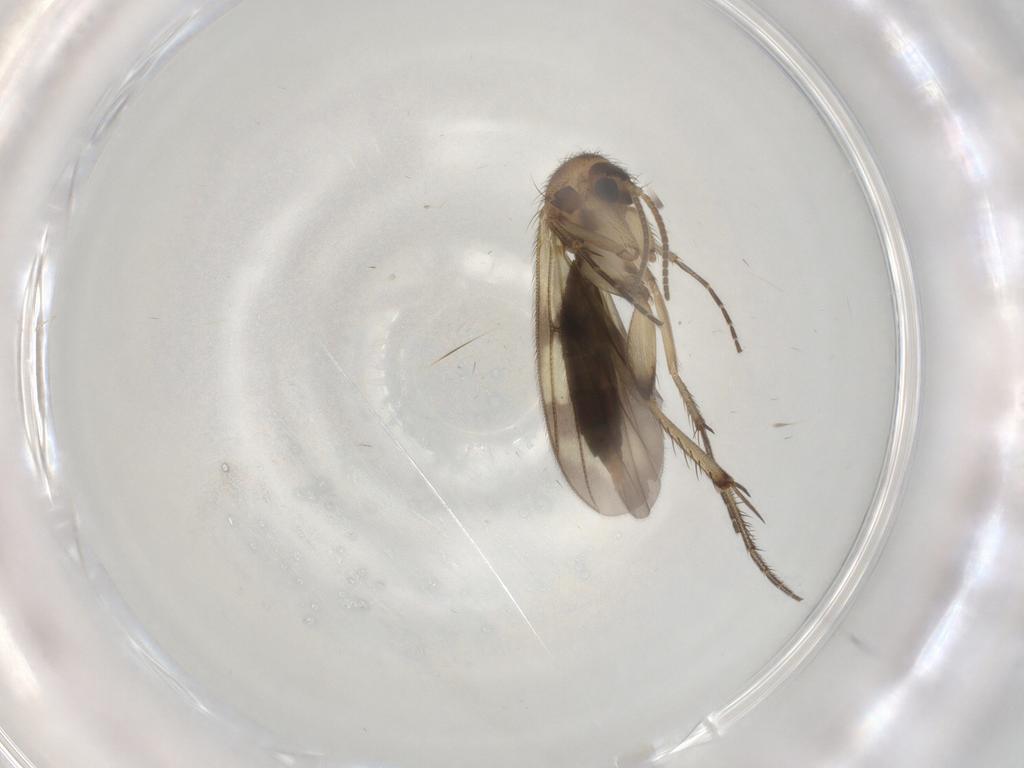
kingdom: Animalia
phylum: Arthropoda
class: Insecta
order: Diptera
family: Mycetophilidae
